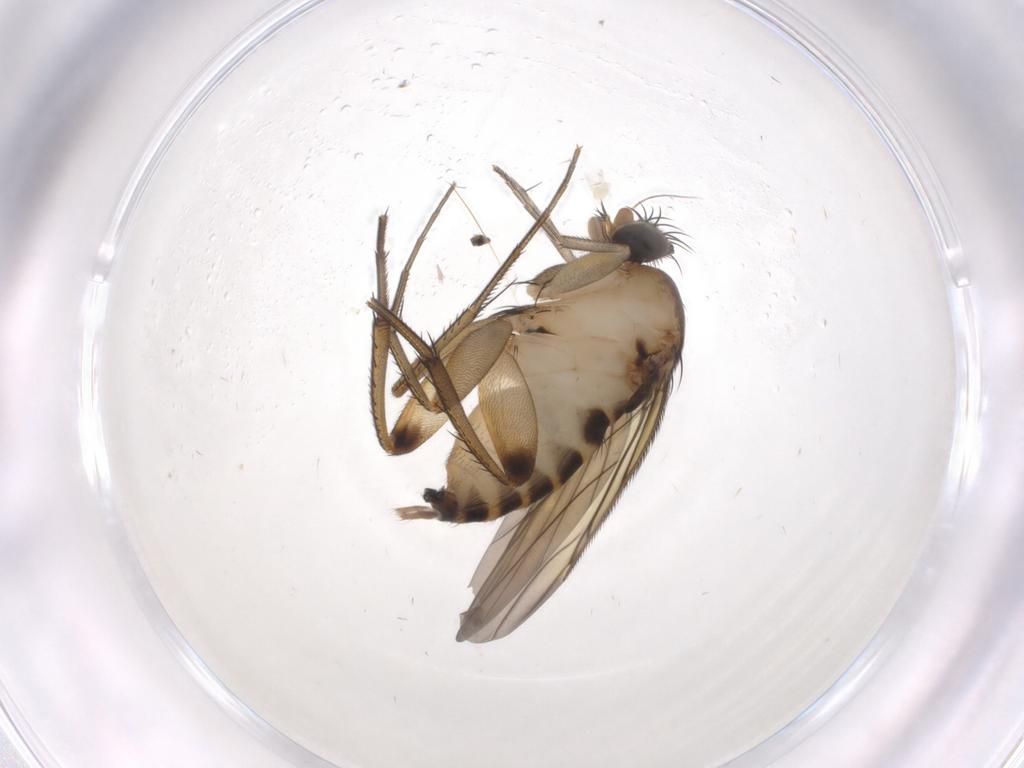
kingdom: Animalia
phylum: Arthropoda
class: Insecta
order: Diptera
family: Phoridae
